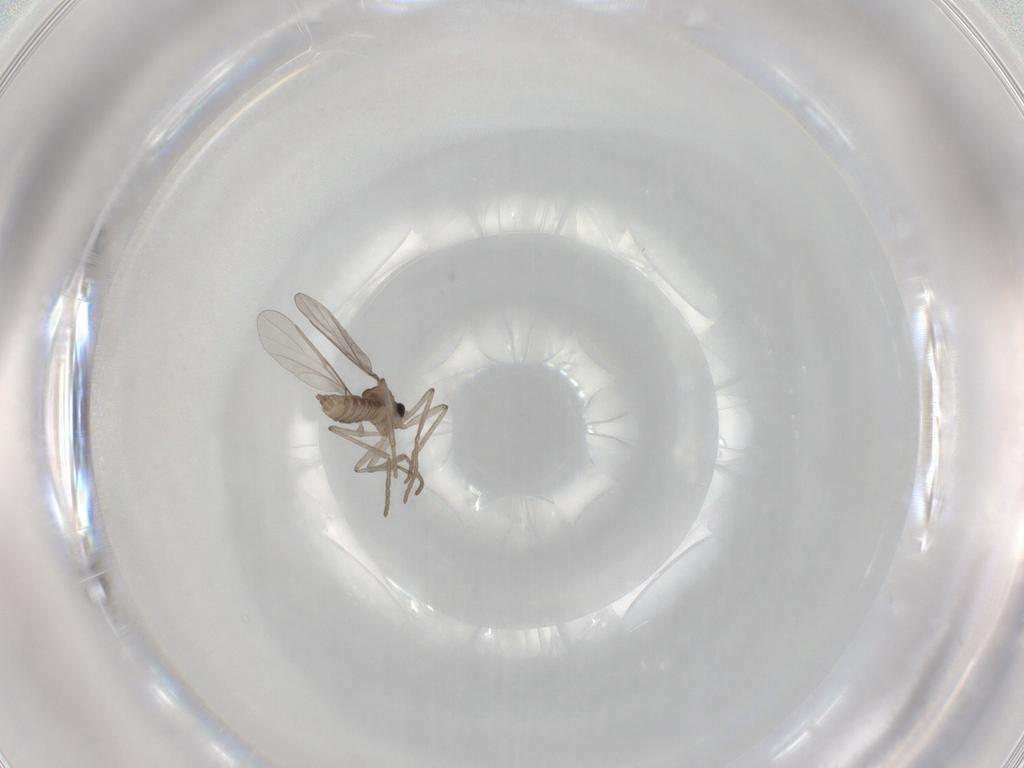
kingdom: Animalia
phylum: Arthropoda
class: Insecta
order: Diptera
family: Cecidomyiidae
